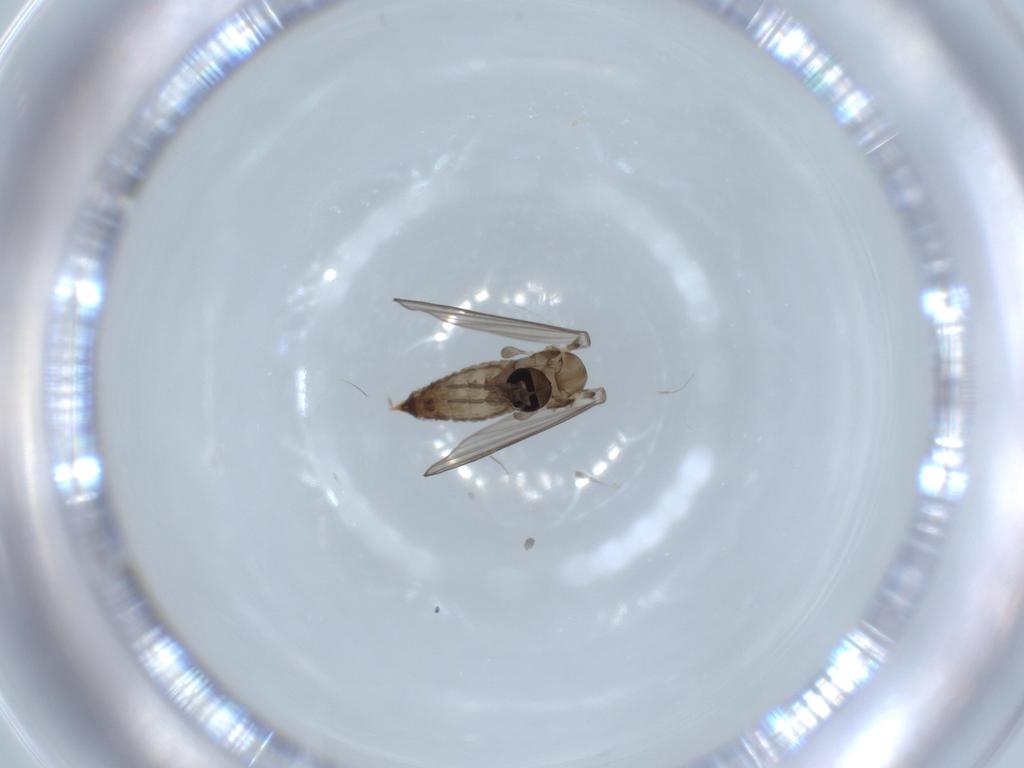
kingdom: Animalia
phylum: Arthropoda
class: Insecta
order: Diptera
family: Psychodidae
